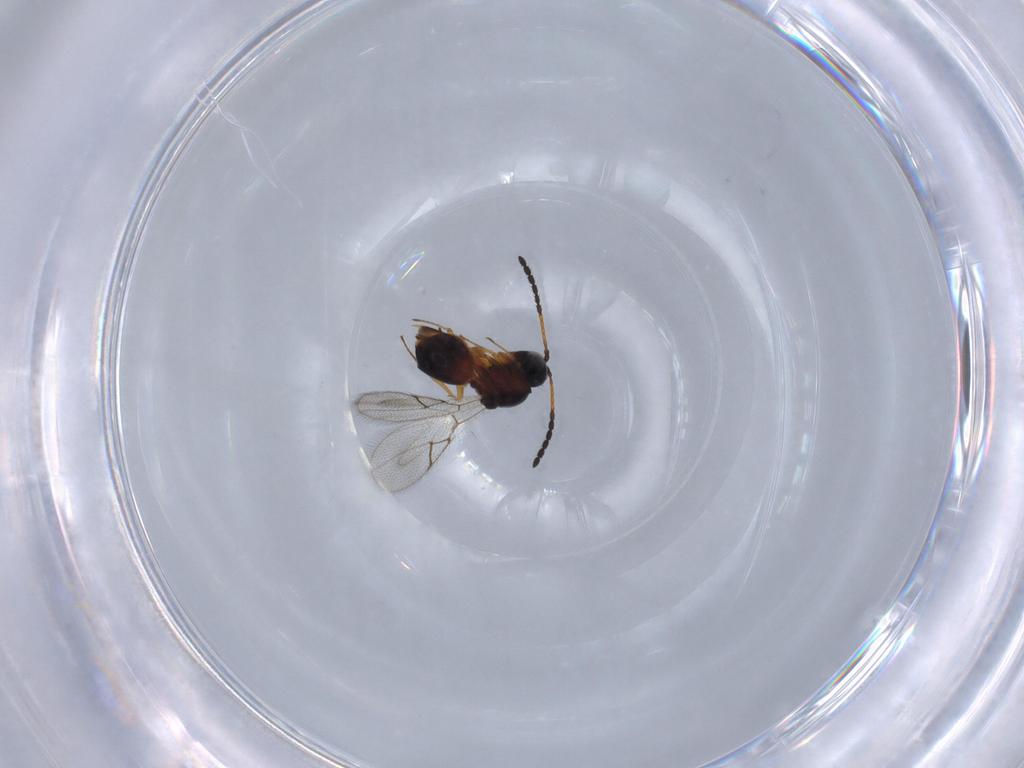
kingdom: Animalia
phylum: Arthropoda
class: Insecta
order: Hymenoptera
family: Figitidae
